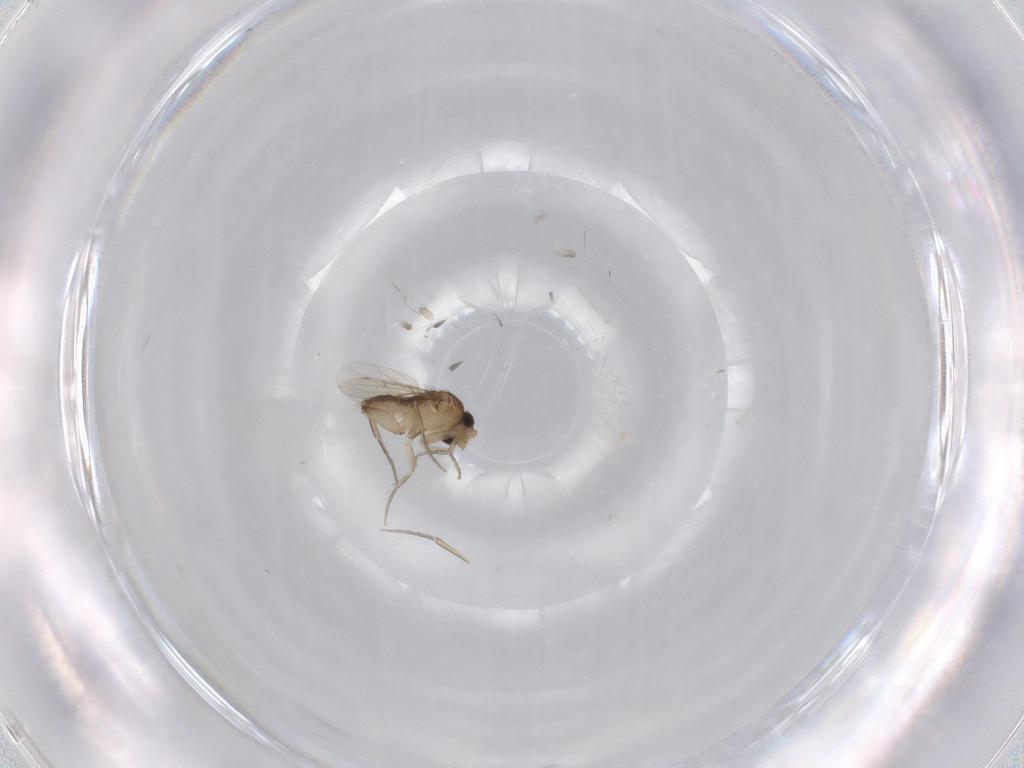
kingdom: Animalia
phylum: Arthropoda
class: Insecta
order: Diptera
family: Phoridae
